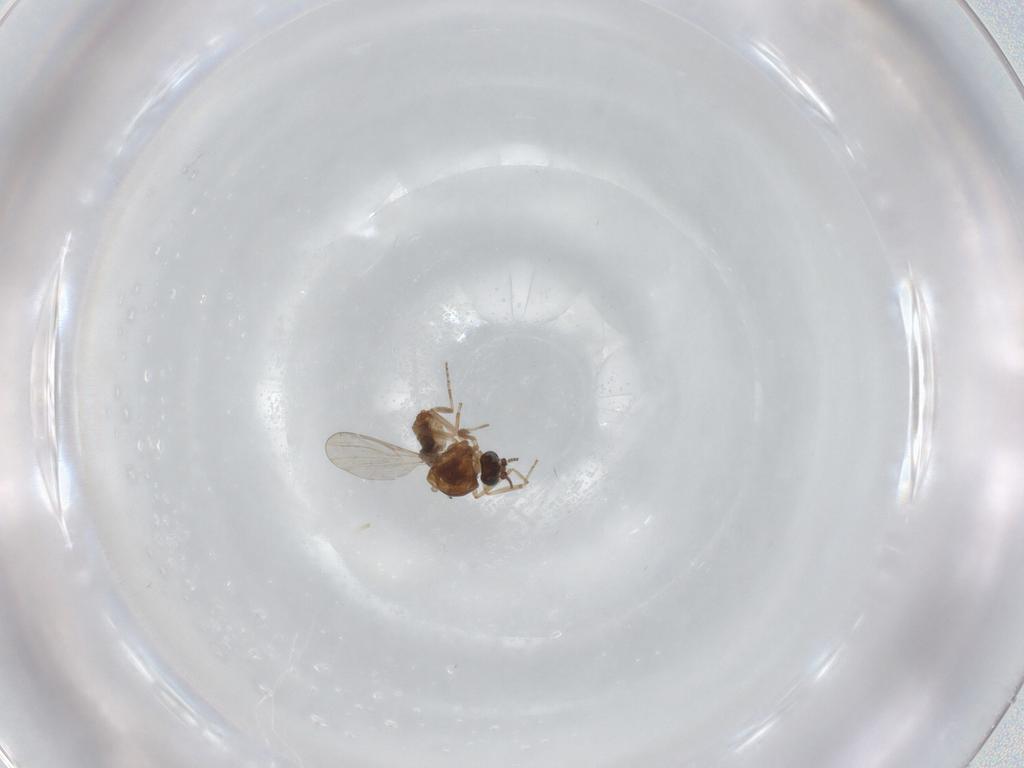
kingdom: Animalia
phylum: Arthropoda
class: Insecta
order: Diptera
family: Ceratopogonidae
